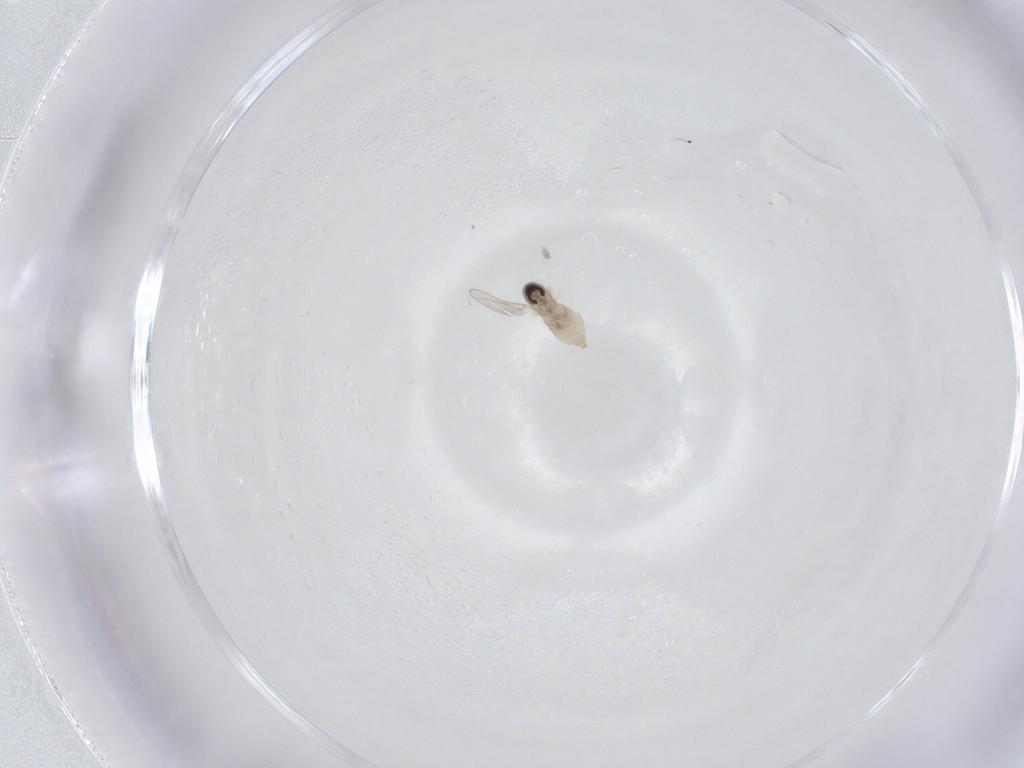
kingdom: Animalia
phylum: Arthropoda
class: Insecta
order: Diptera
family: Cecidomyiidae
